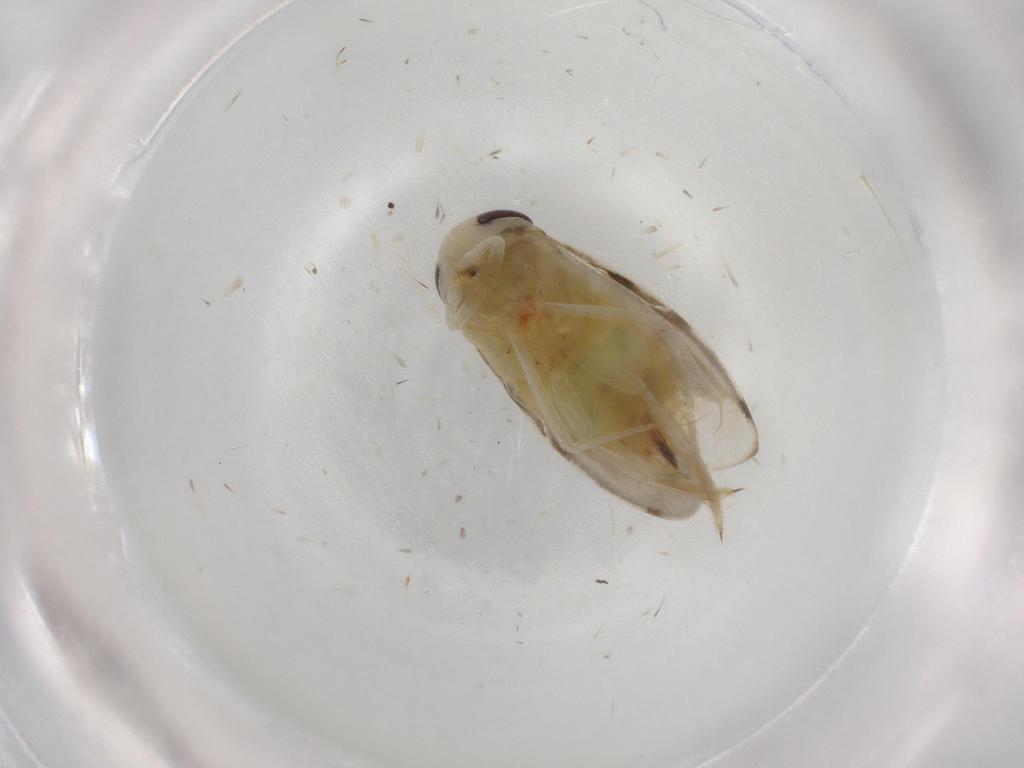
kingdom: Animalia
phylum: Arthropoda
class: Insecta
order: Hemiptera
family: Corixidae
